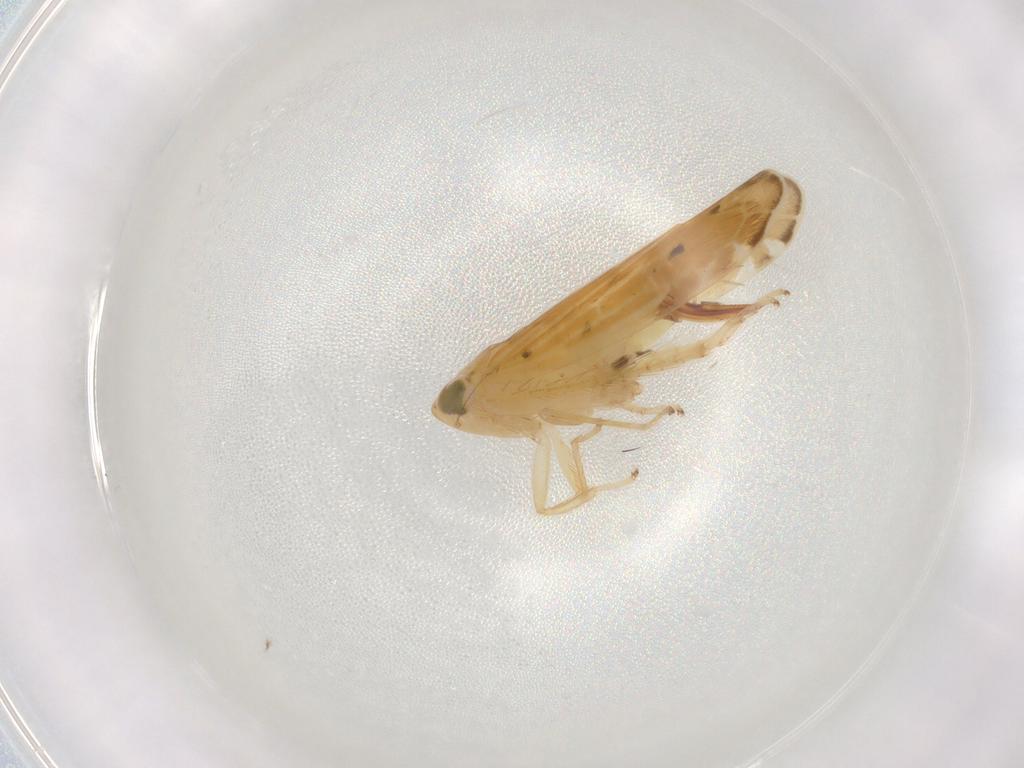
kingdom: Animalia
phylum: Arthropoda
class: Insecta
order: Hemiptera
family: Cicadellidae
